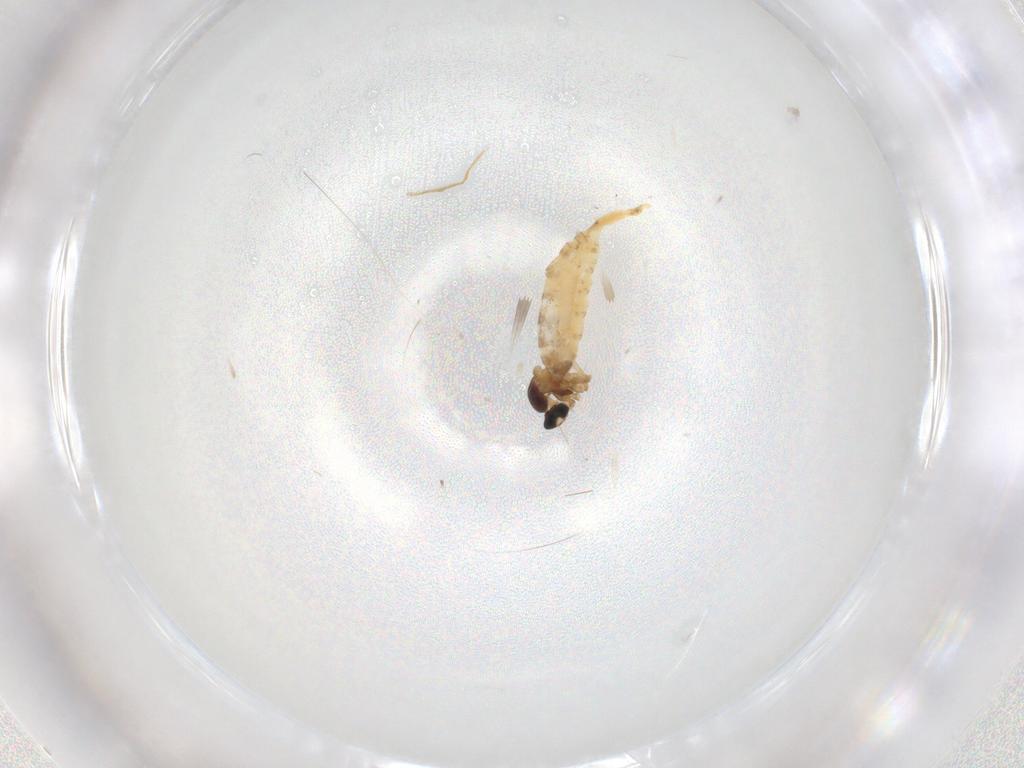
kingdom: Animalia
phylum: Arthropoda
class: Insecta
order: Diptera
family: Cecidomyiidae
